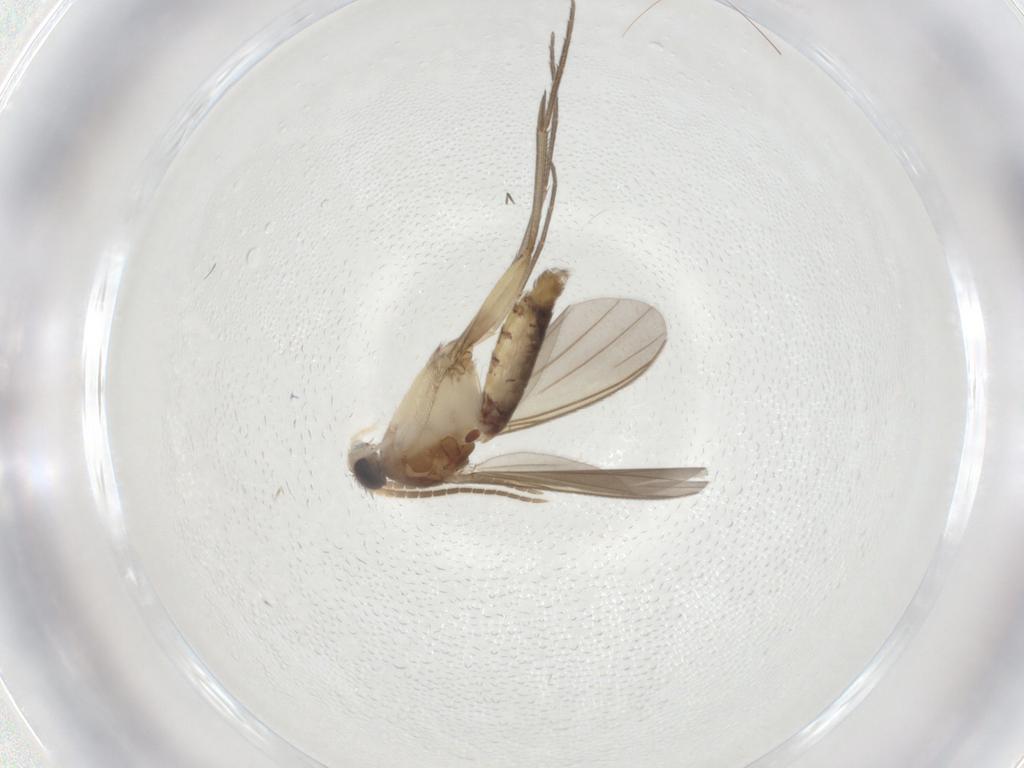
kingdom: Animalia
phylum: Arthropoda
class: Insecta
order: Diptera
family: Mycetophilidae
